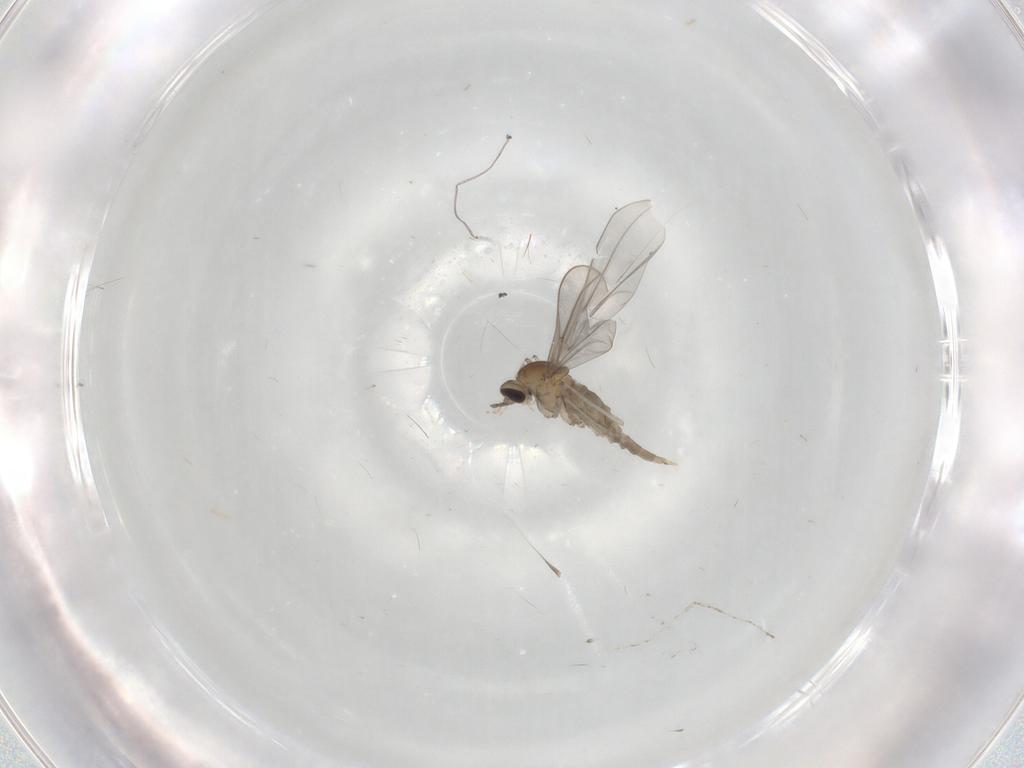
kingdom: Animalia
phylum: Arthropoda
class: Insecta
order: Diptera
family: Cecidomyiidae
